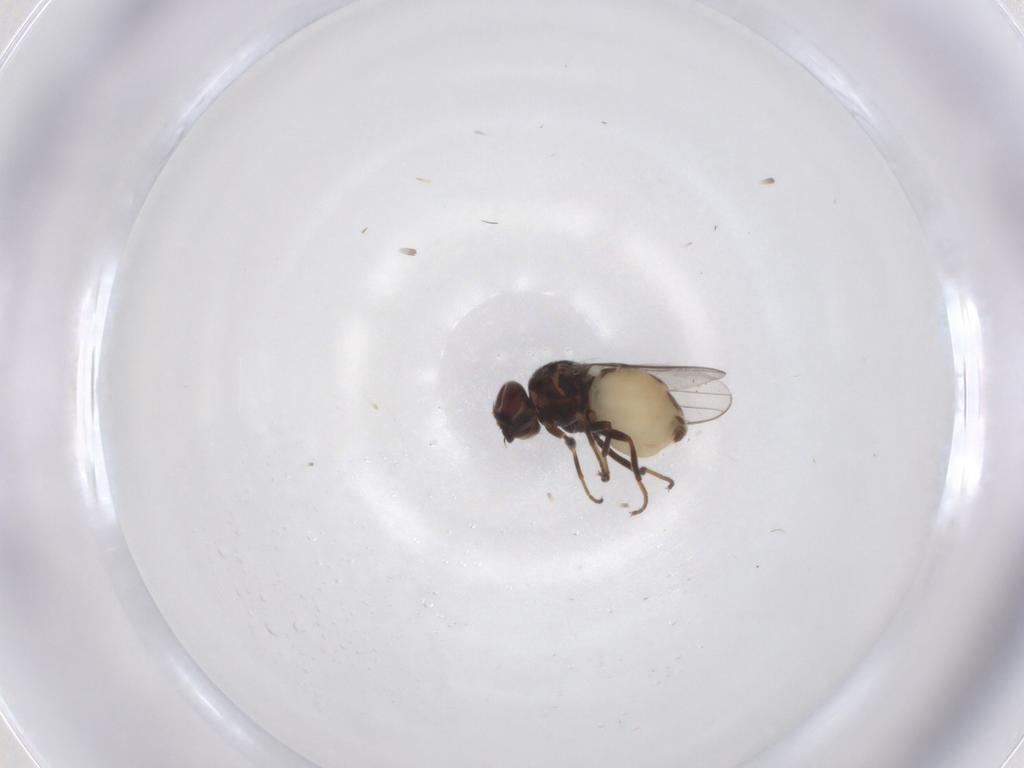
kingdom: Animalia
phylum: Arthropoda
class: Insecta
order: Diptera
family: Chloropidae
